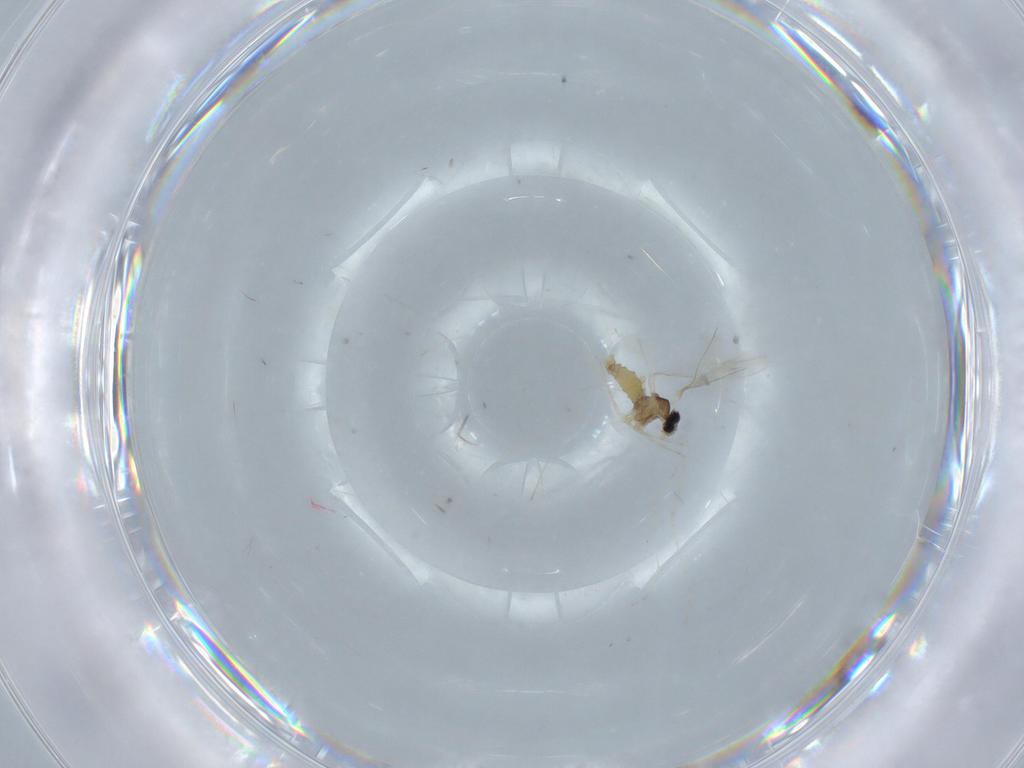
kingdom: Animalia
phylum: Arthropoda
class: Insecta
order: Diptera
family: Cecidomyiidae
